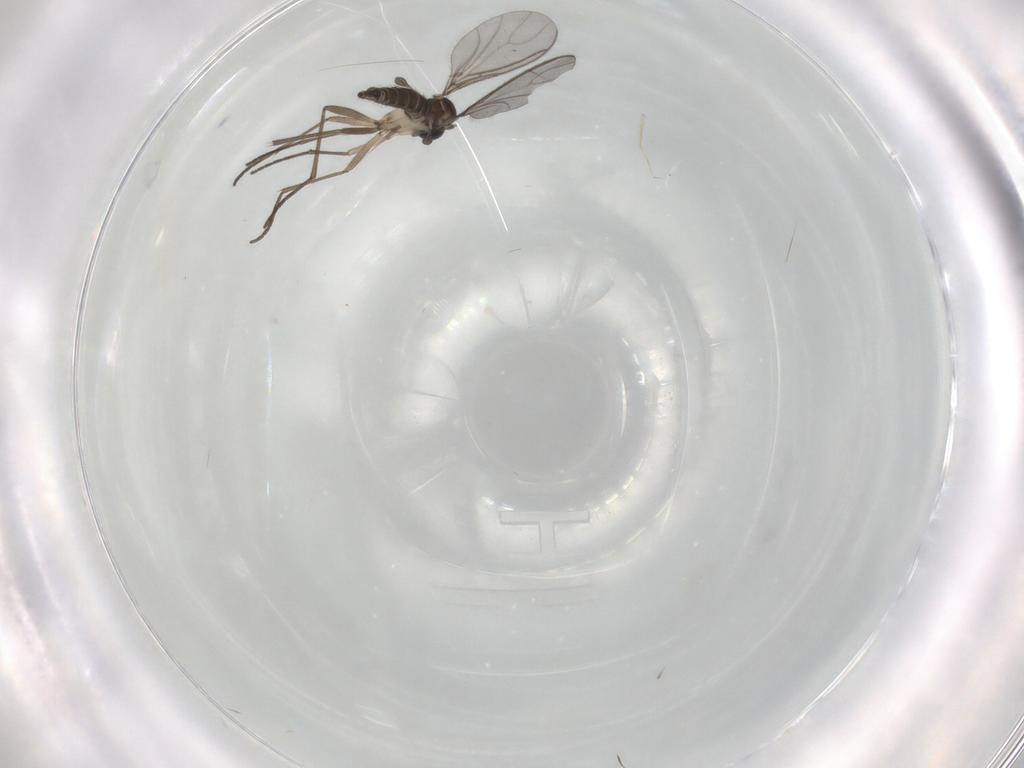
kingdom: Animalia
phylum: Arthropoda
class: Insecta
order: Diptera
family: Sciaridae
